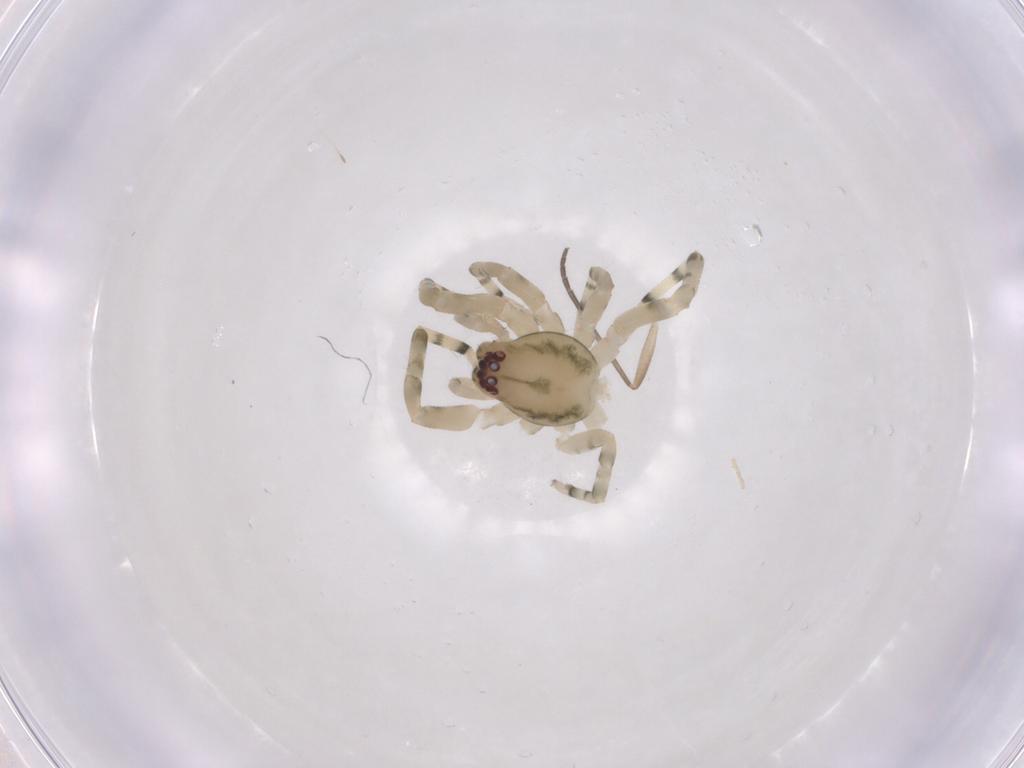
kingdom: Animalia
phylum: Arthropoda
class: Arachnida
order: Araneae
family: Trachelidae
